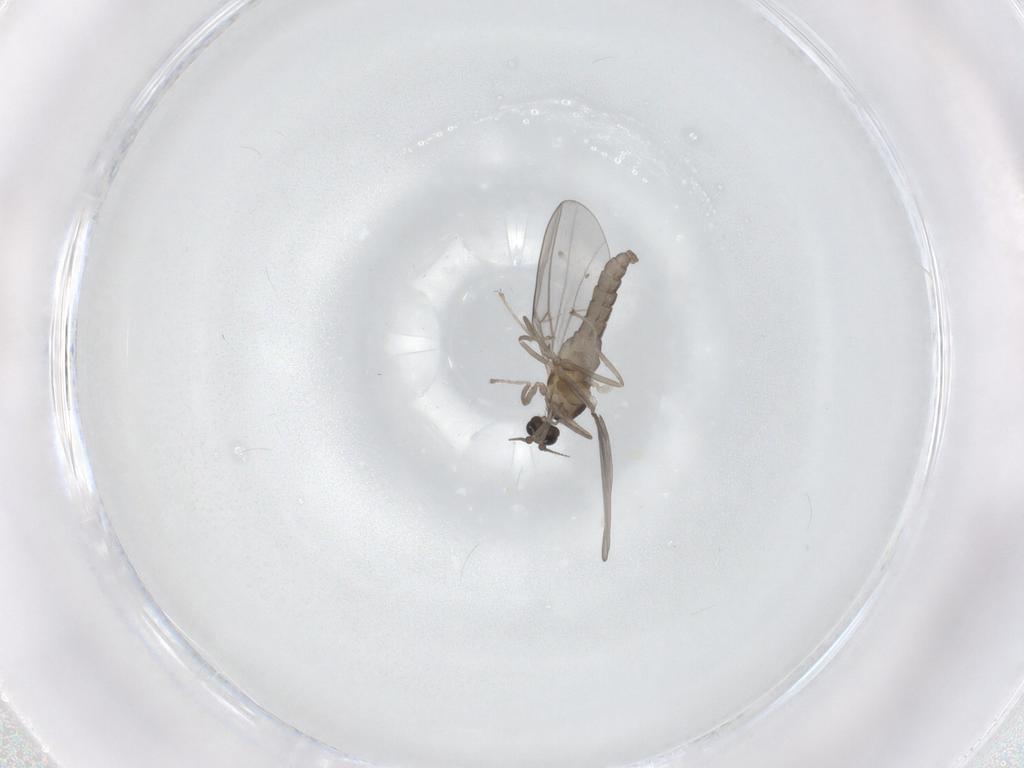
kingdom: Animalia
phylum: Arthropoda
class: Insecta
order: Diptera
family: Cecidomyiidae
